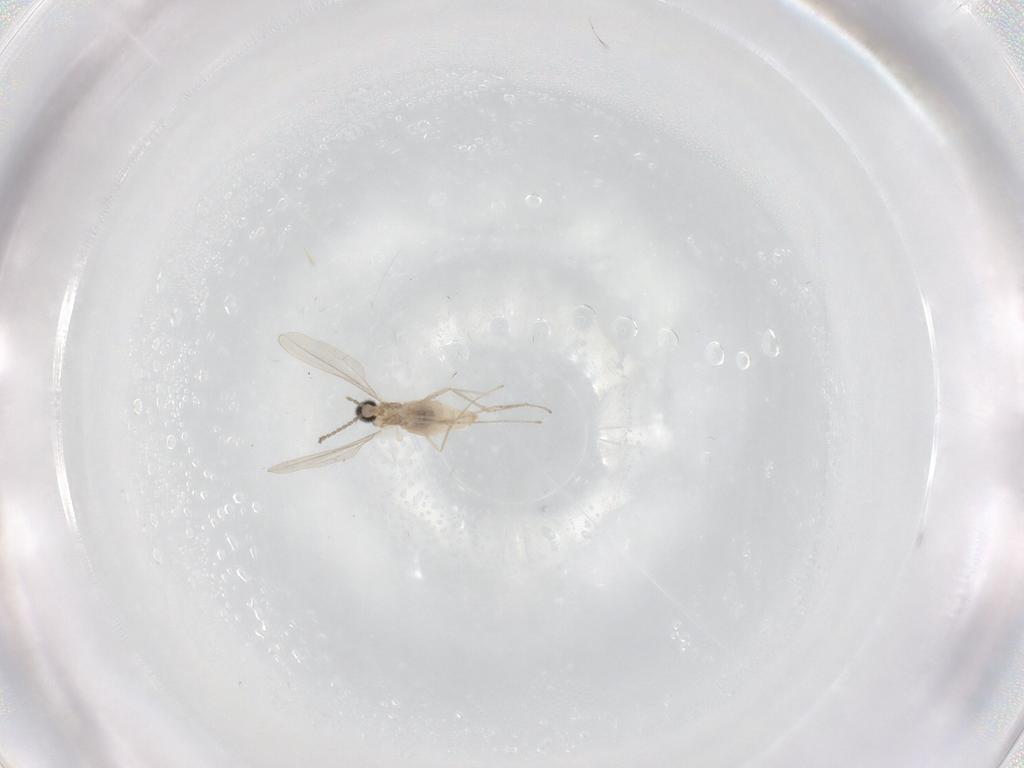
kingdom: Animalia
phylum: Arthropoda
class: Insecta
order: Diptera
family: Cecidomyiidae
